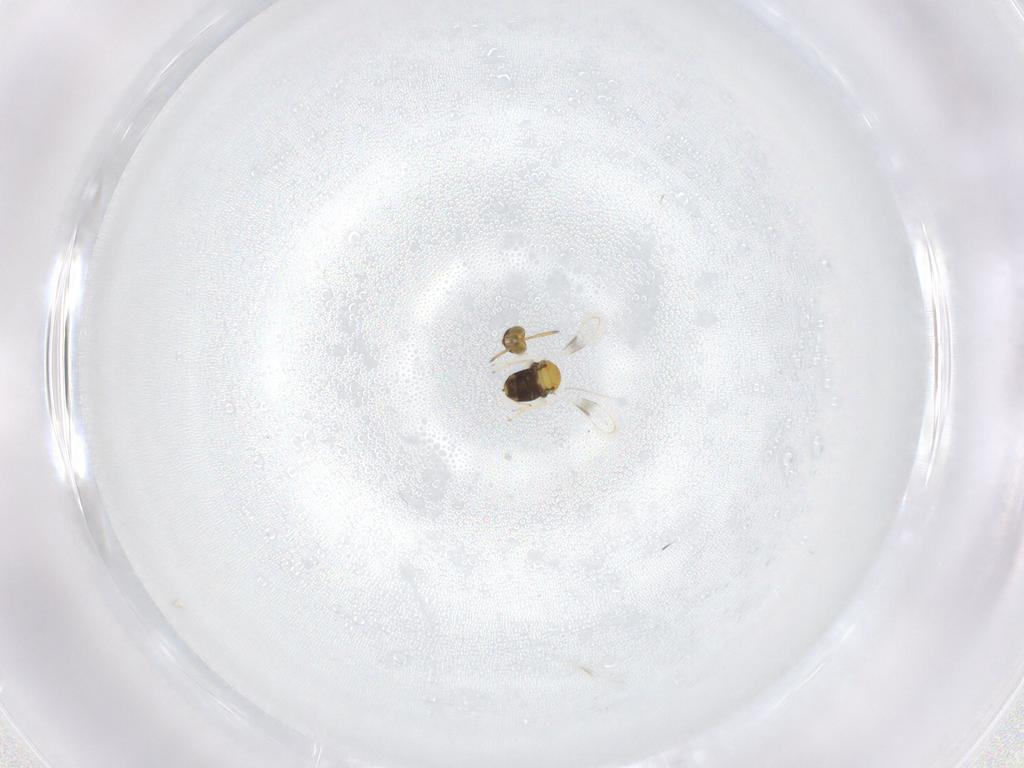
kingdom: Animalia
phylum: Arthropoda
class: Insecta
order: Hymenoptera
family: Aphelinidae
